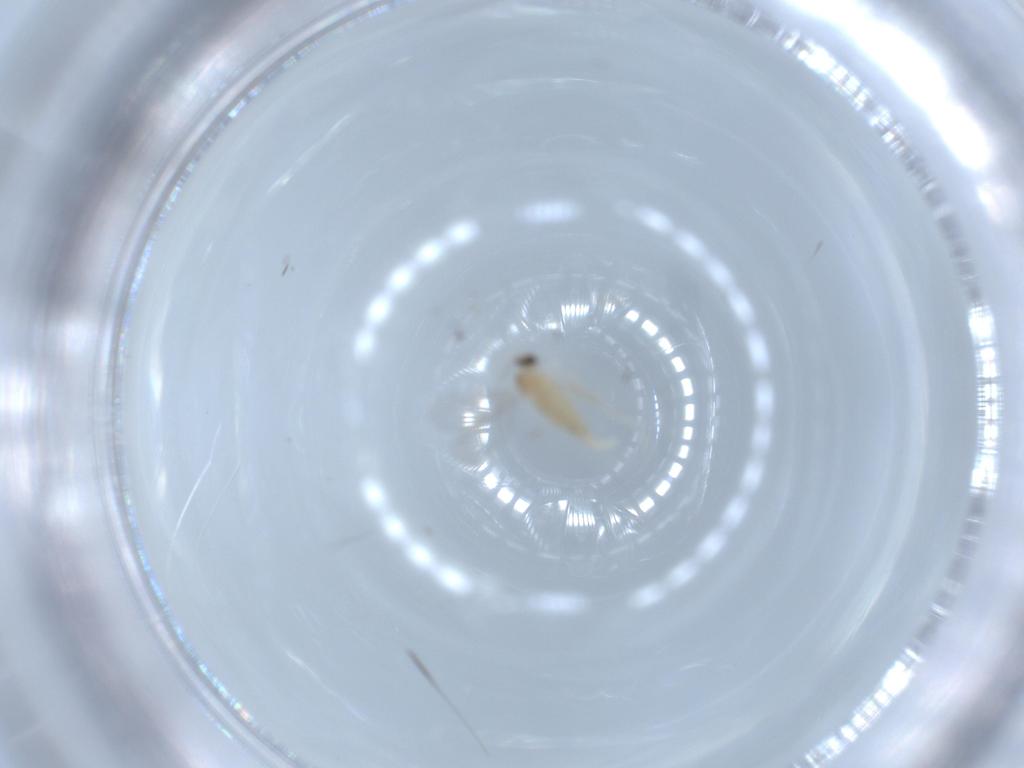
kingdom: Animalia
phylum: Arthropoda
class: Insecta
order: Diptera
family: Cecidomyiidae
